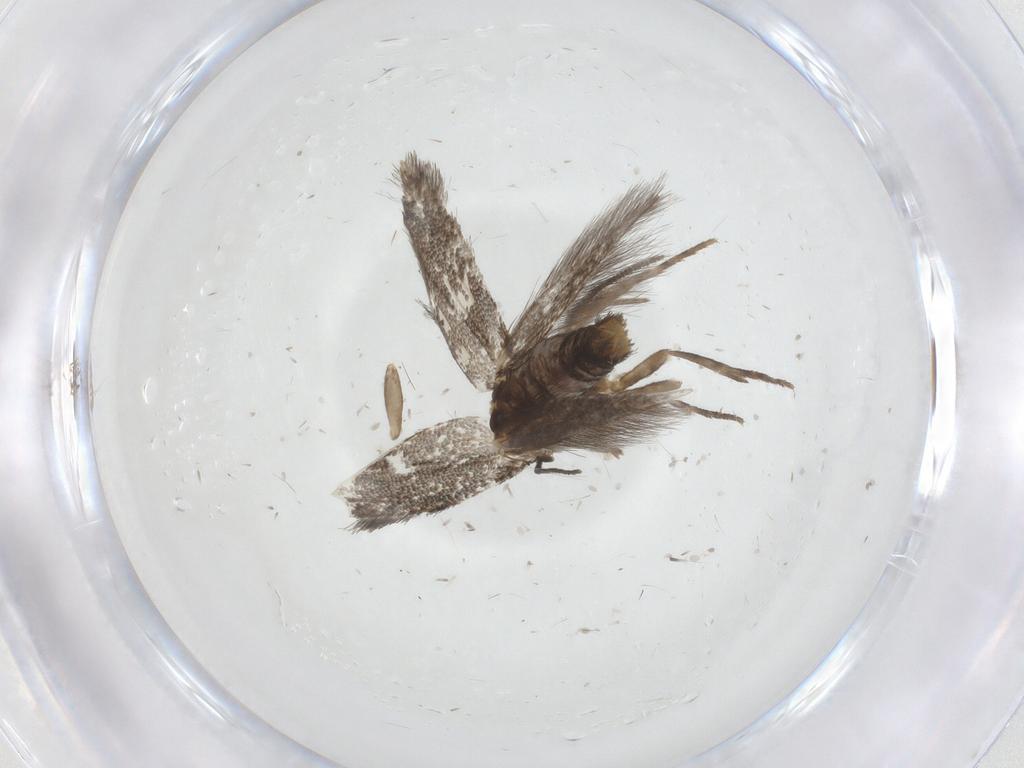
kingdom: Animalia
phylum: Arthropoda
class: Insecta
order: Lepidoptera
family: Elachistidae
